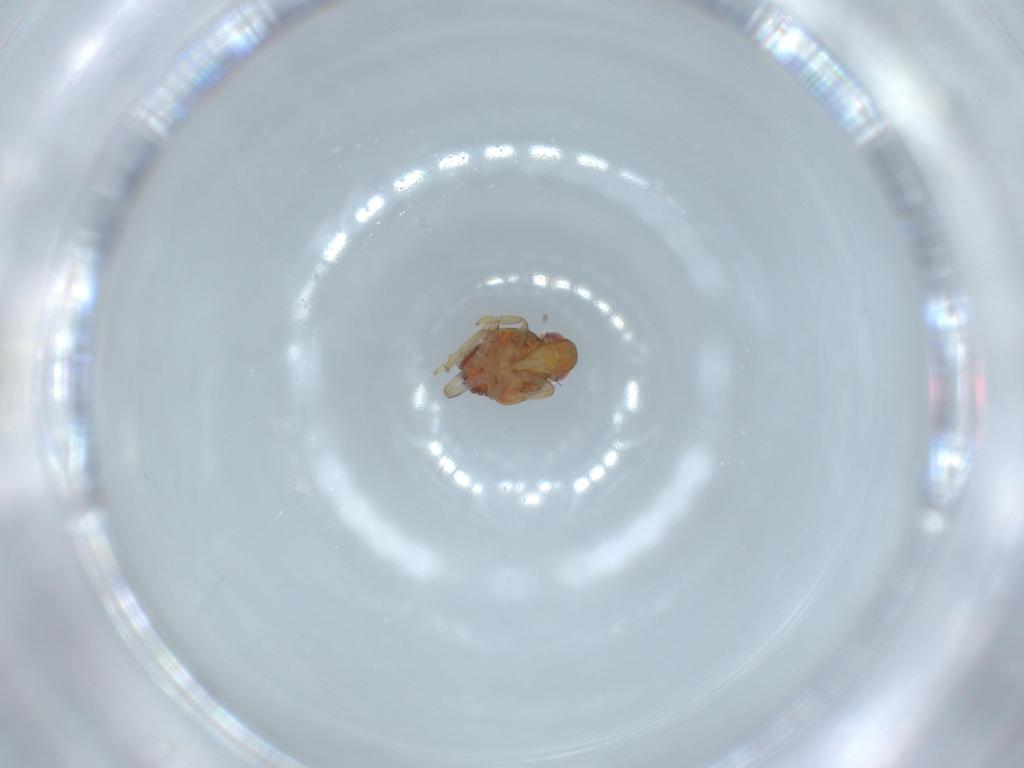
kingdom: Animalia
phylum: Arthropoda
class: Insecta
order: Hemiptera
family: Issidae
